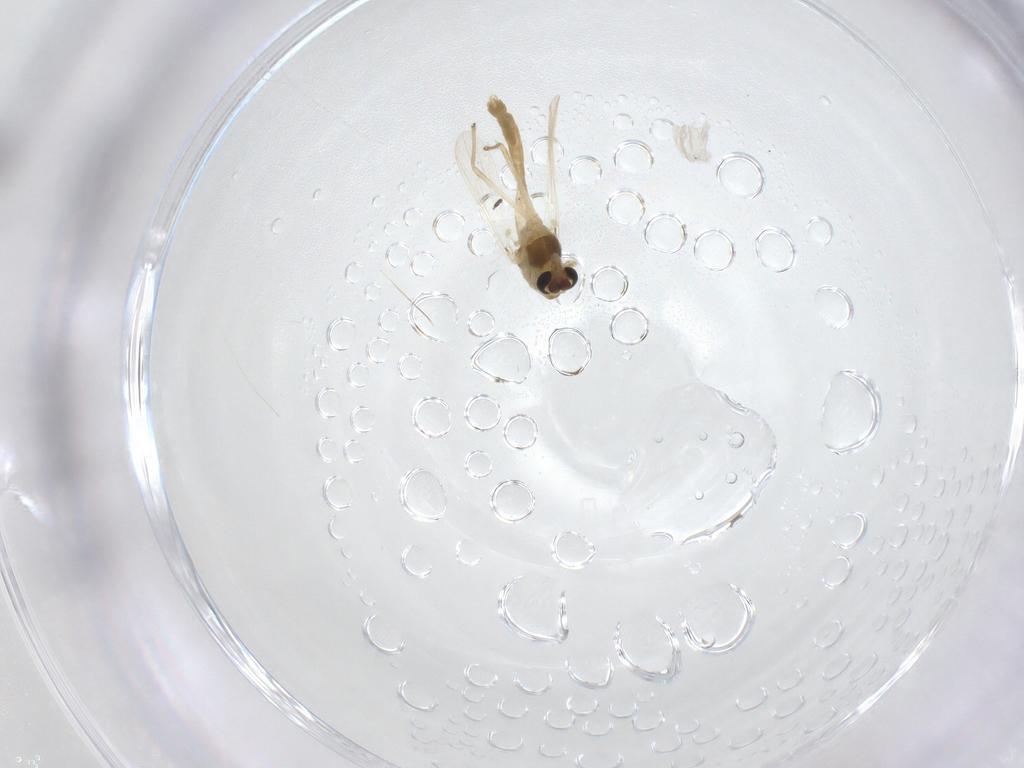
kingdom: Animalia
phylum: Arthropoda
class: Insecta
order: Diptera
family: Chironomidae
